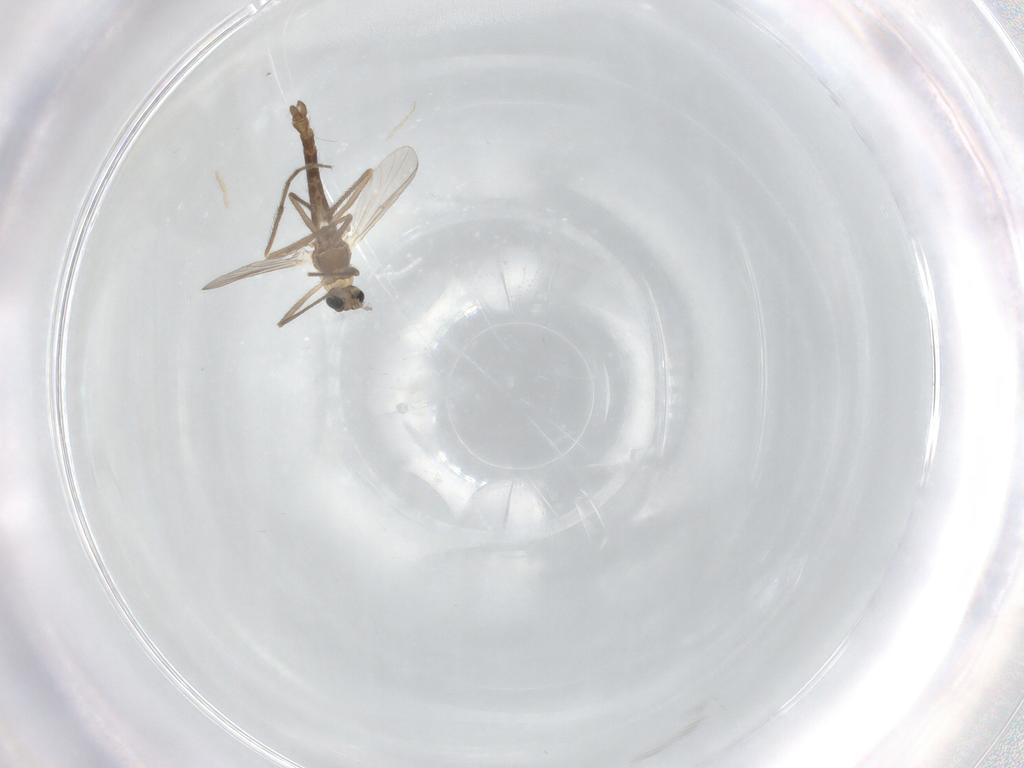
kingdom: Animalia
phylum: Arthropoda
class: Insecta
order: Diptera
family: Chironomidae
